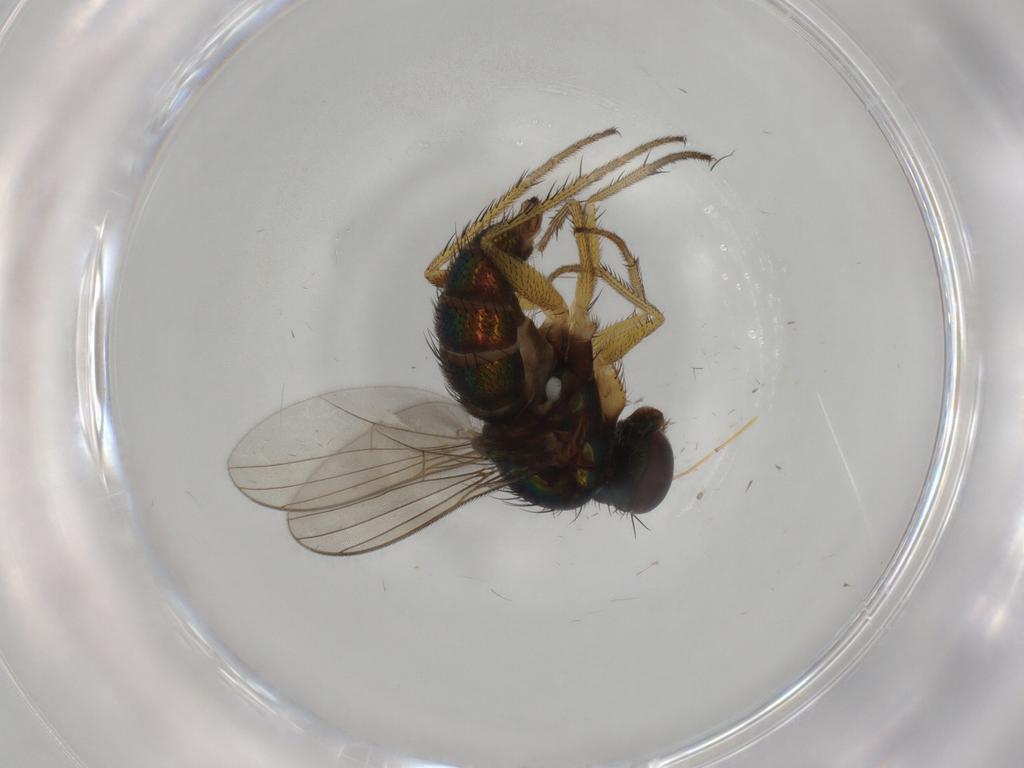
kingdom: Animalia
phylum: Arthropoda
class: Insecta
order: Diptera
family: Dolichopodidae
